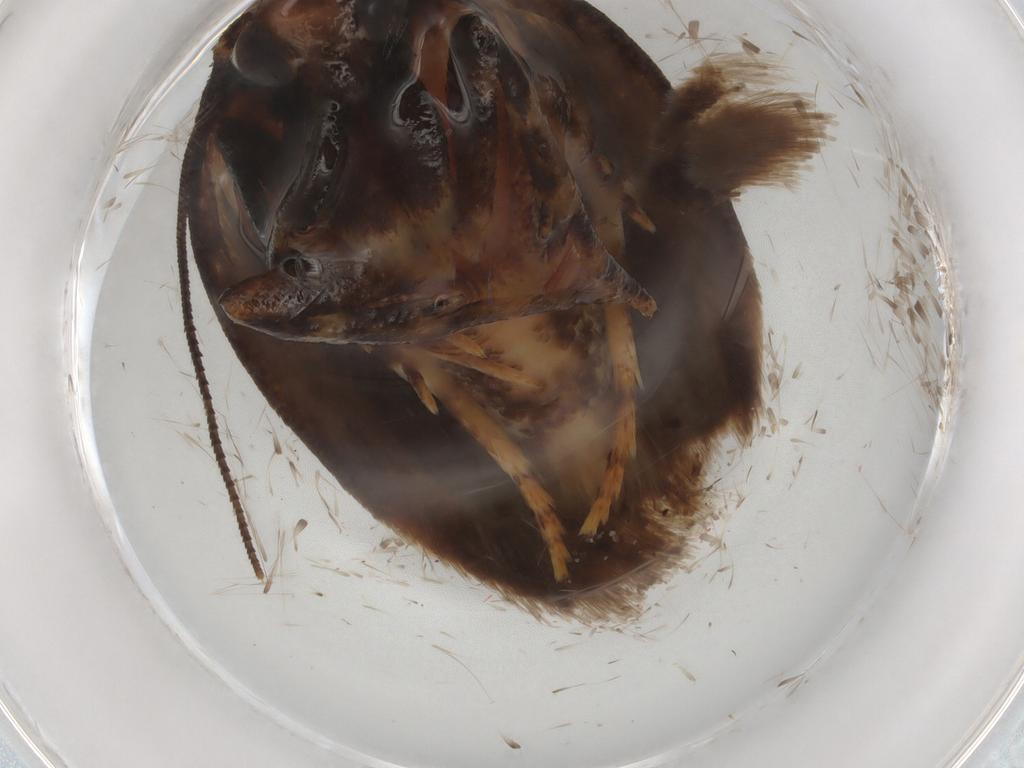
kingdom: Animalia
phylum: Arthropoda
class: Insecta
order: Lepidoptera
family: Gelechiidae
